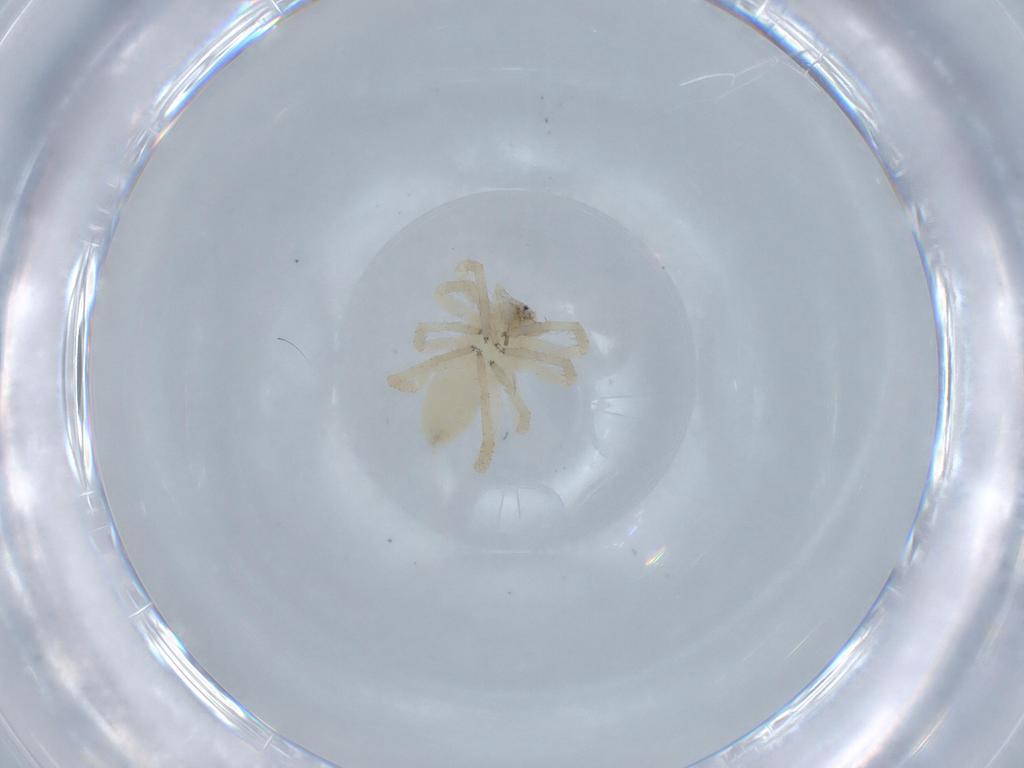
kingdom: Animalia
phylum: Arthropoda
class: Arachnida
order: Araneae
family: Anyphaenidae
